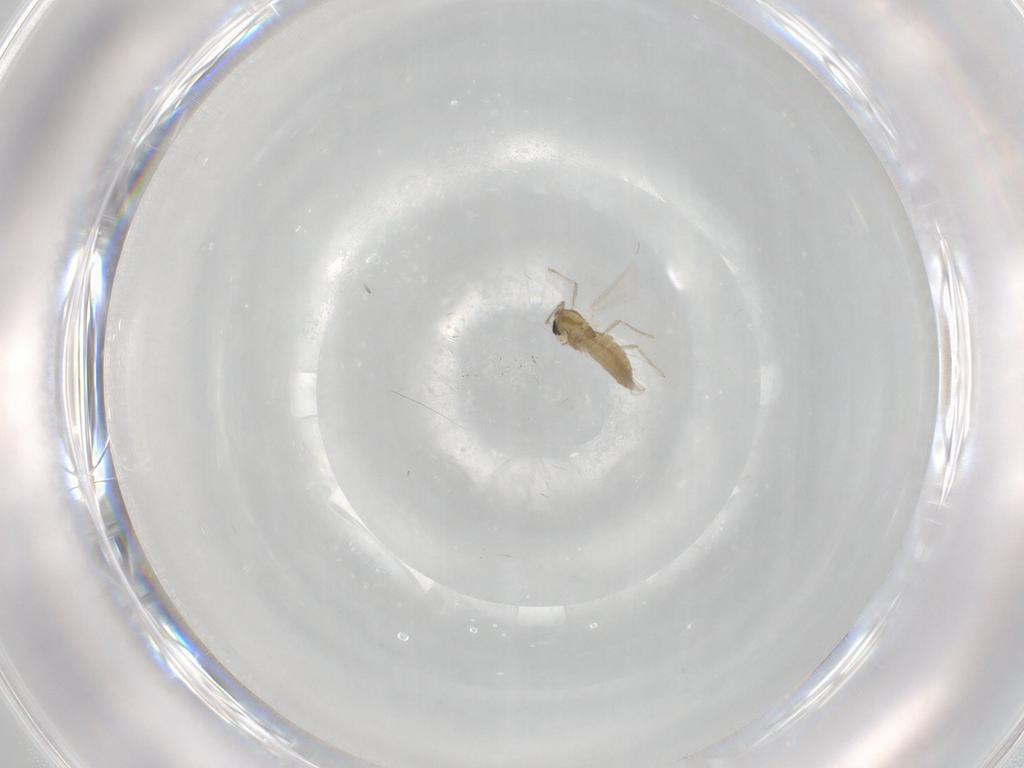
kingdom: Animalia
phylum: Arthropoda
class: Insecta
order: Diptera
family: Chironomidae
